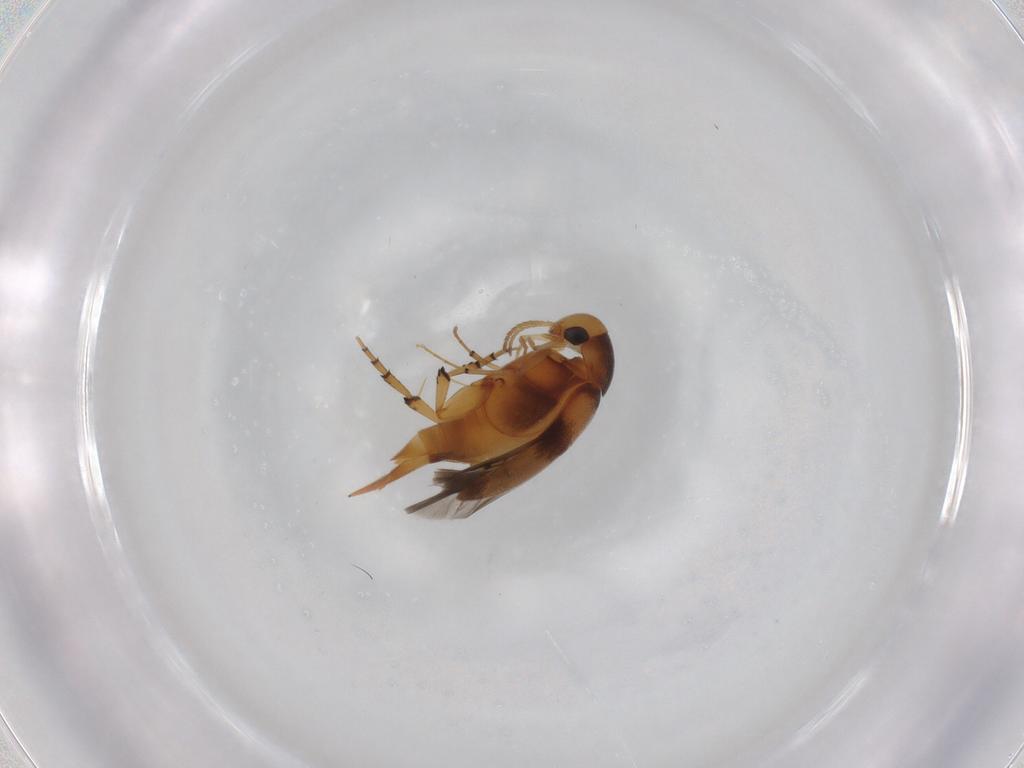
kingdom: Animalia
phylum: Arthropoda
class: Insecta
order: Coleoptera
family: Mordellidae
